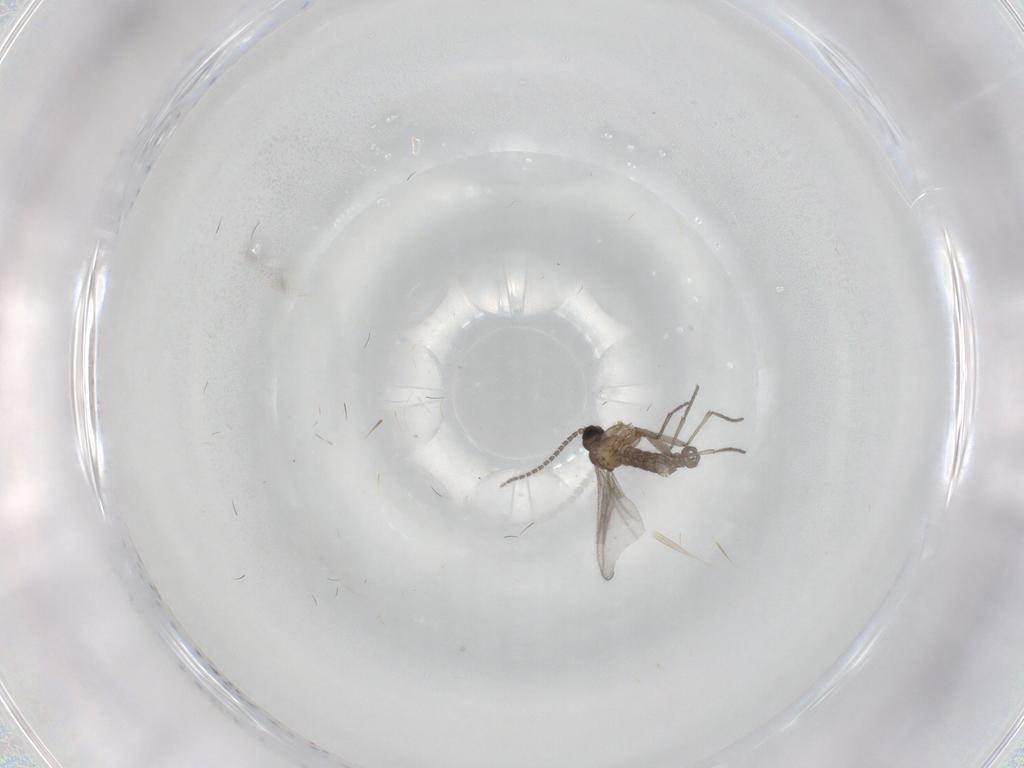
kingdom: Animalia
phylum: Arthropoda
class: Insecta
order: Diptera
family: Sciaridae
